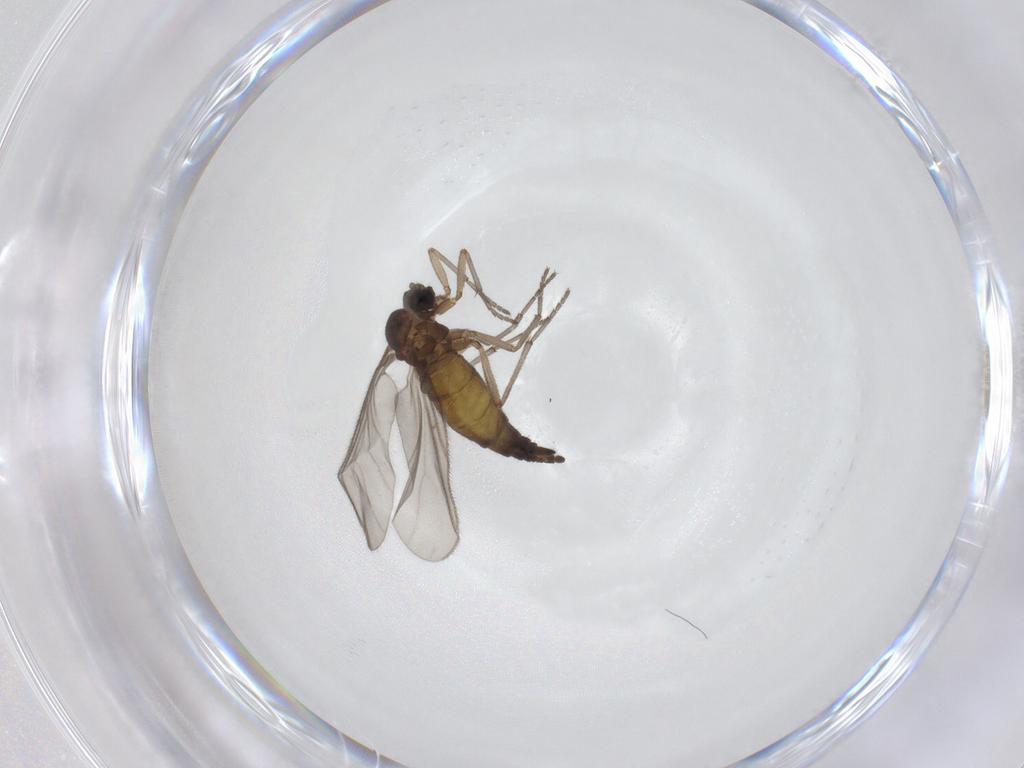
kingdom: Animalia
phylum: Arthropoda
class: Insecta
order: Diptera
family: Sciaridae
